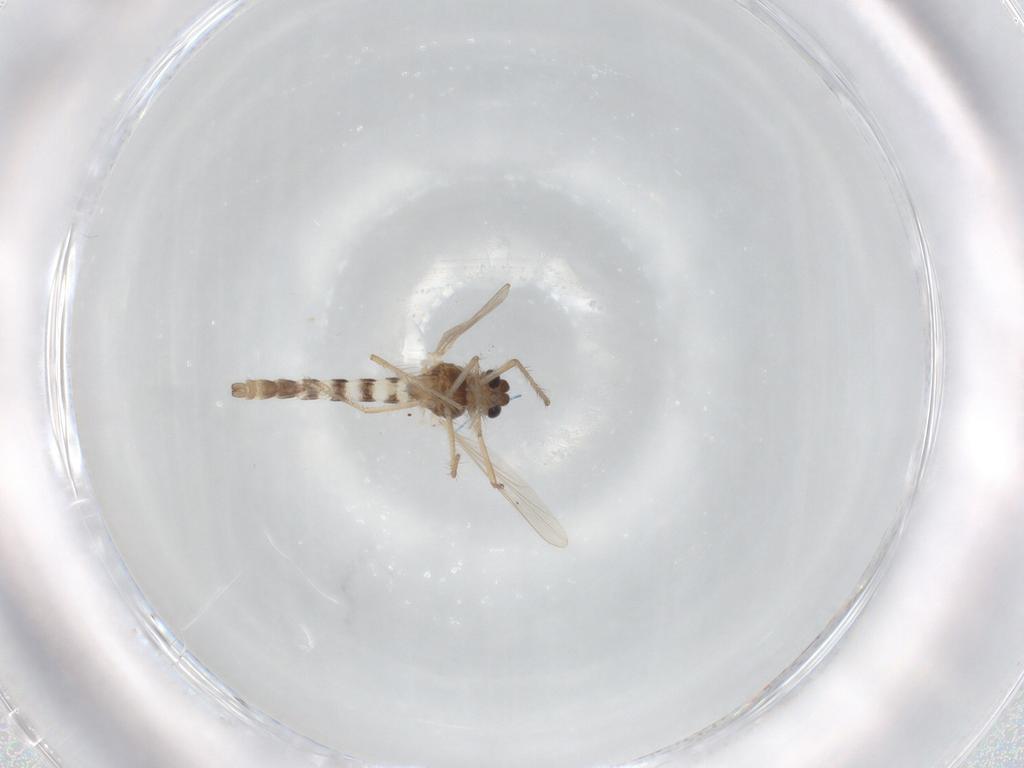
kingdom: Animalia
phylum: Arthropoda
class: Insecta
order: Diptera
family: Chironomidae
